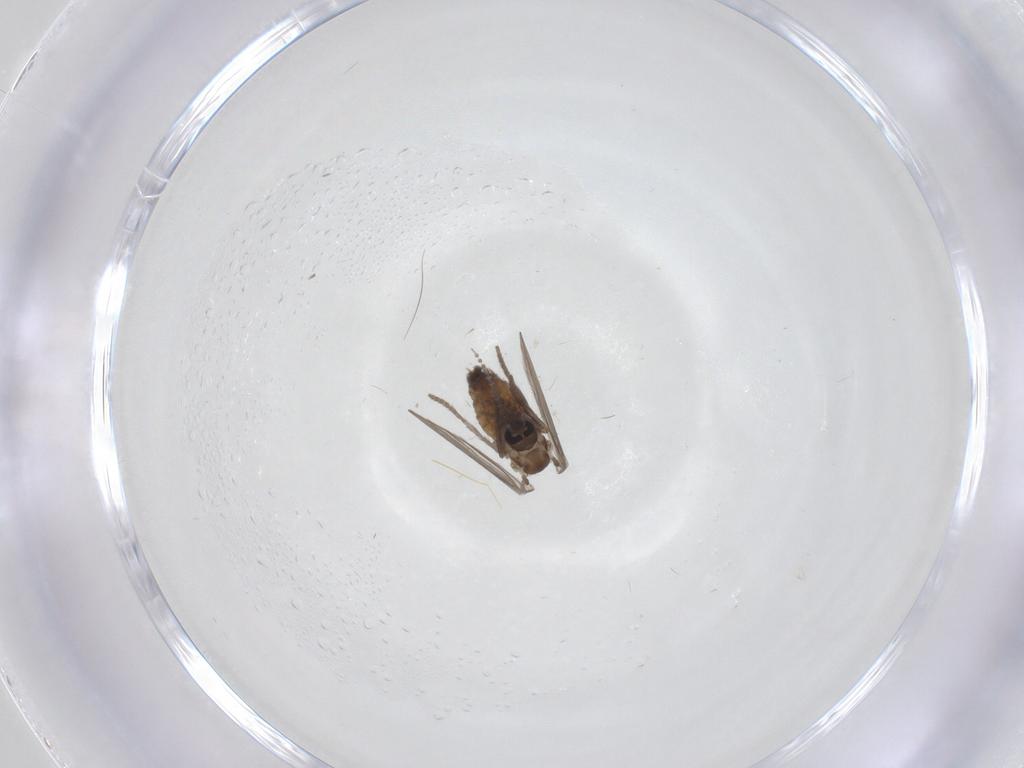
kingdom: Animalia
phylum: Arthropoda
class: Insecta
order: Diptera
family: Psychodidae
